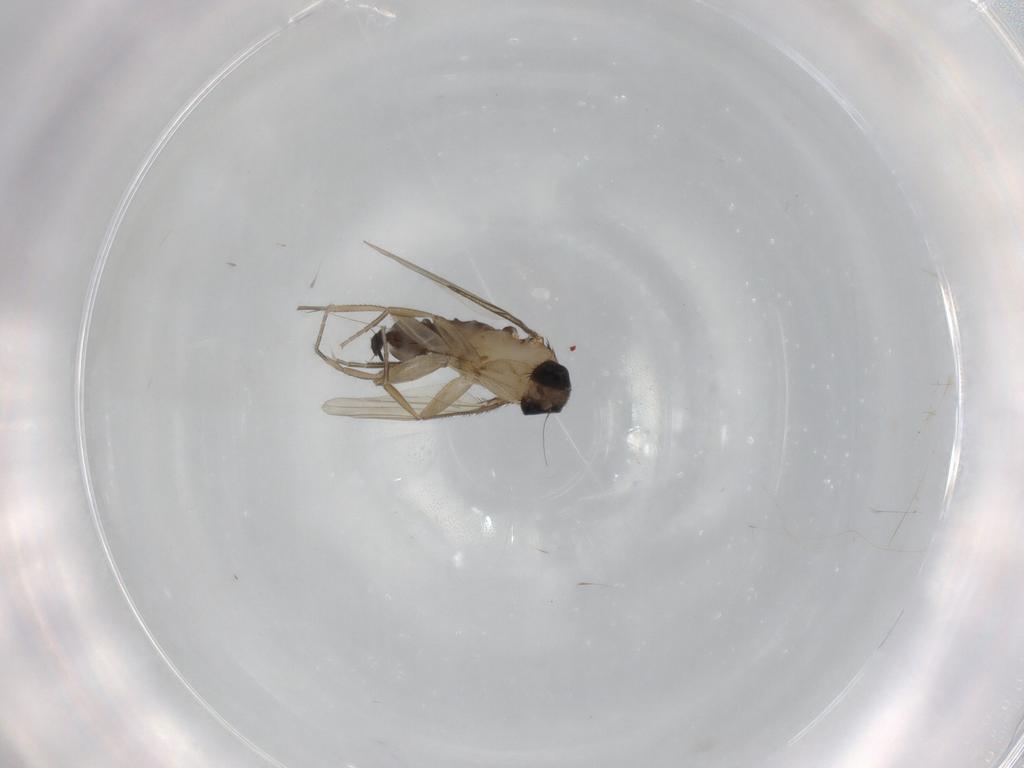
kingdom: Animalia
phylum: Arthropoda
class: Insecta
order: Diptera
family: Phoridae
